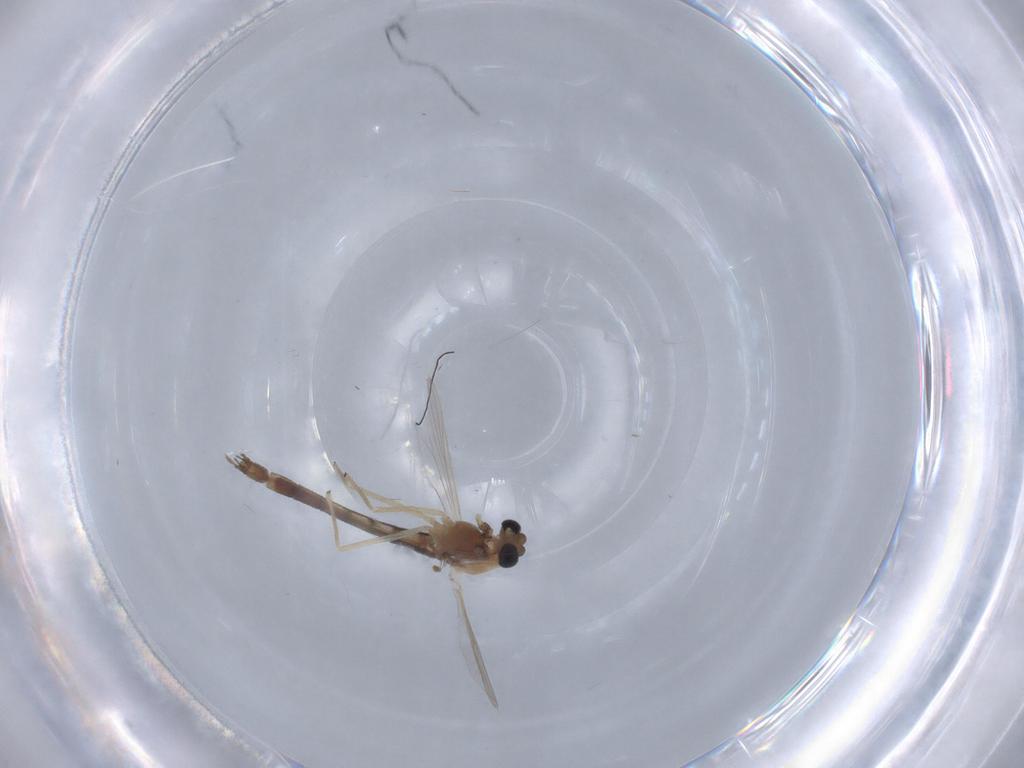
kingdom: Animalia
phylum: Arthropoda
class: Insecta
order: Diptera
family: Chironomidae
